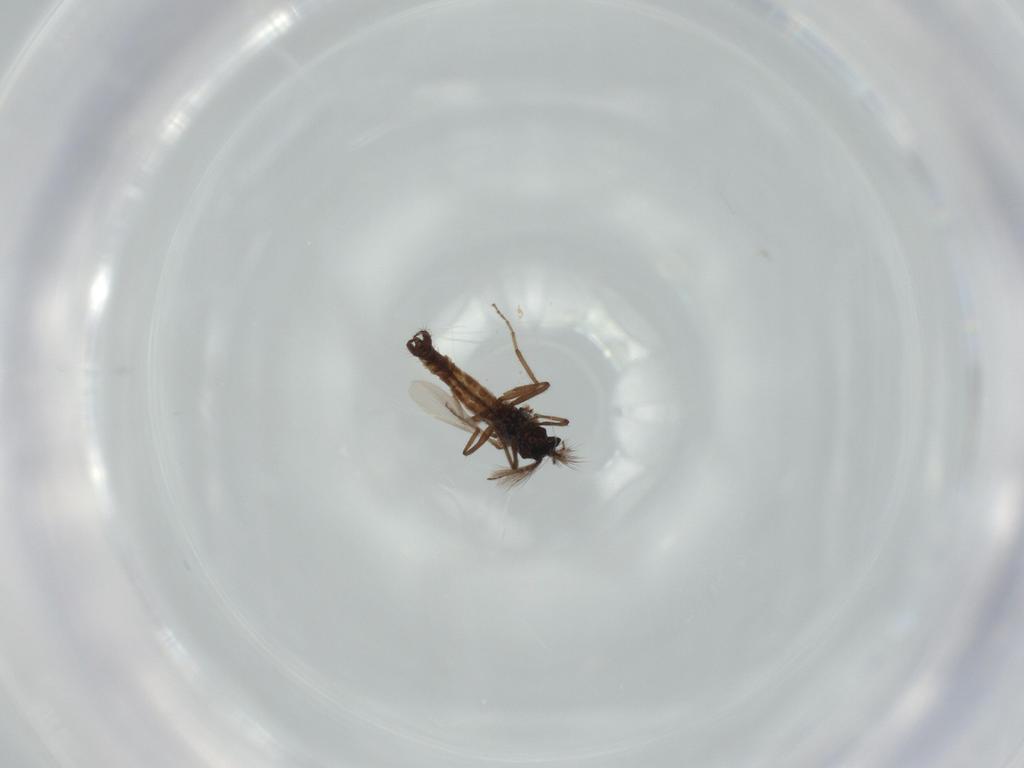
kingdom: Animalia
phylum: Arthropoda
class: Insecta
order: Diptera
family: Ceratopogonidae
